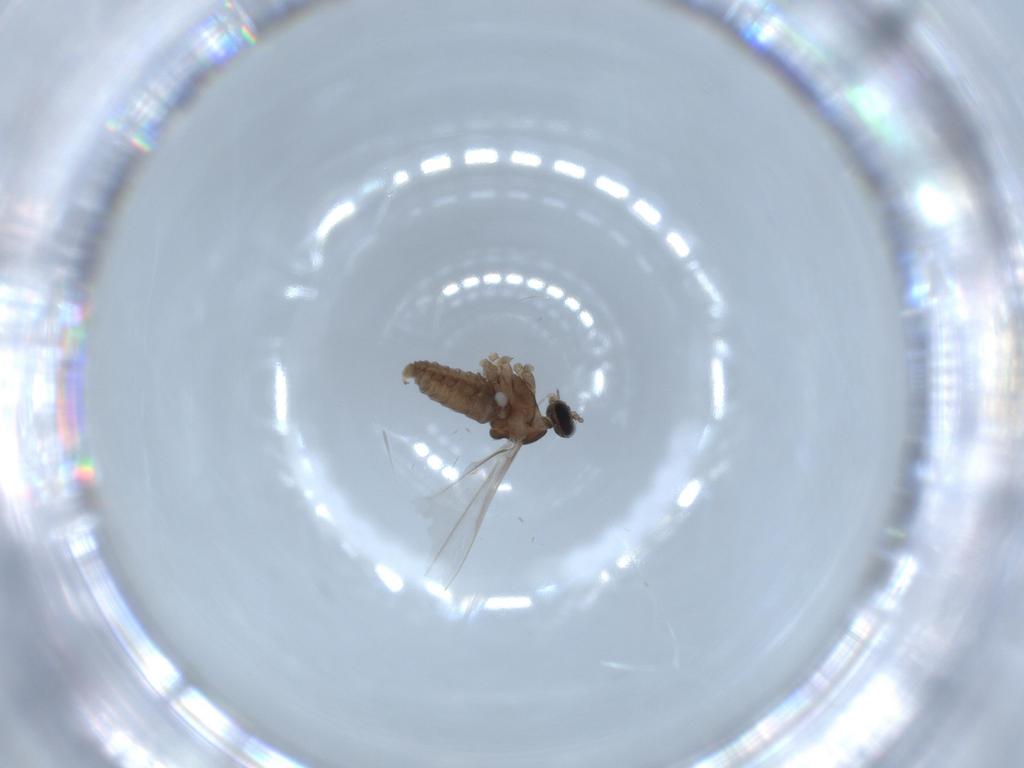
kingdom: Animalia
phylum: Arthropoda
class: Insecta
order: Diptera
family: Cecidomyiidae
